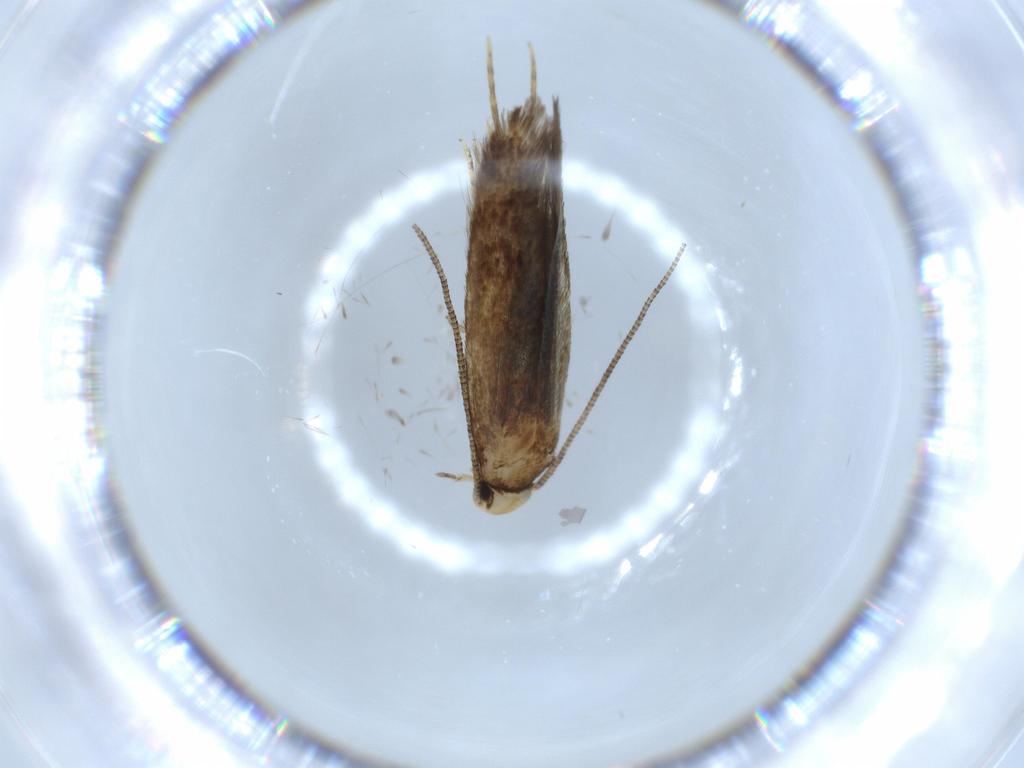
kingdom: Animalia
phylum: Arthropoda
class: Insecta
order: Lepidoptera
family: Tineidae
